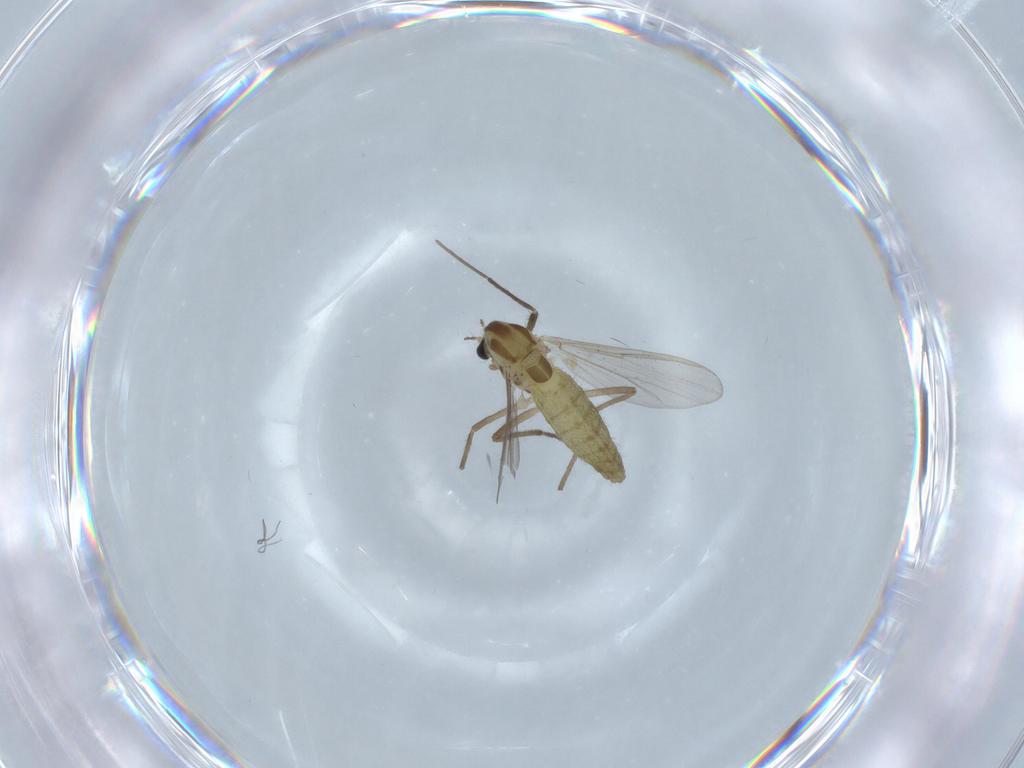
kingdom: Animalia
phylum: Arthropoda
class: Insecta
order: Diptera
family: Chironomidae
